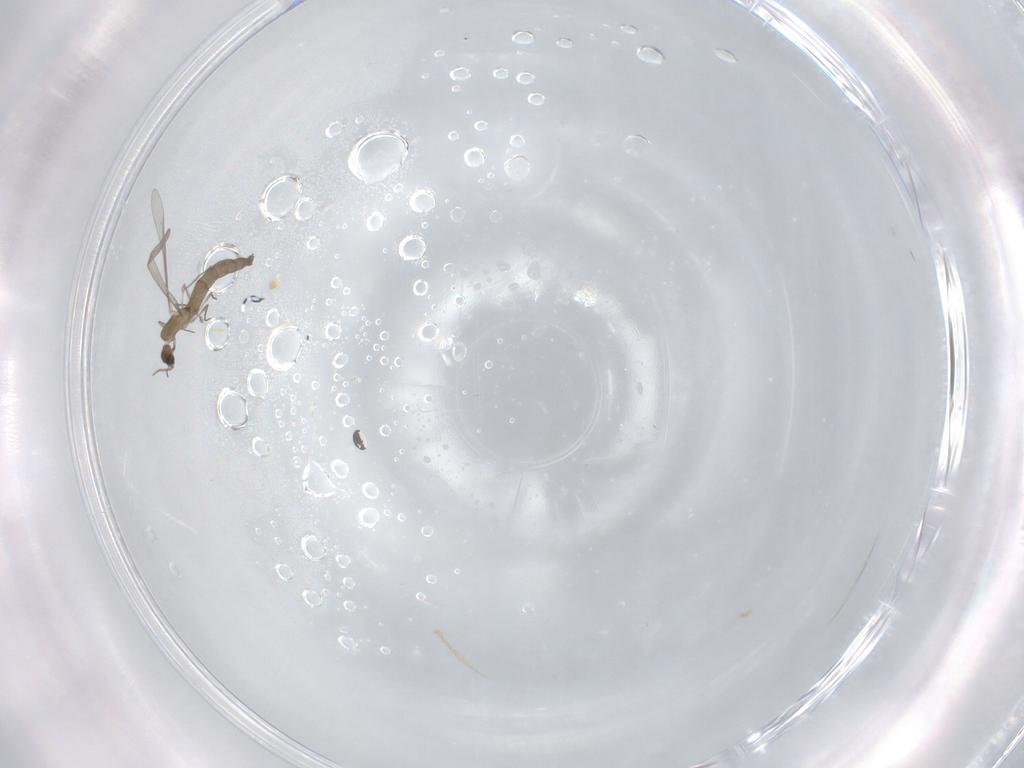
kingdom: Animalia
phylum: Arthropoda
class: Insecta
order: Diptera
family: Cecidomyiidae
